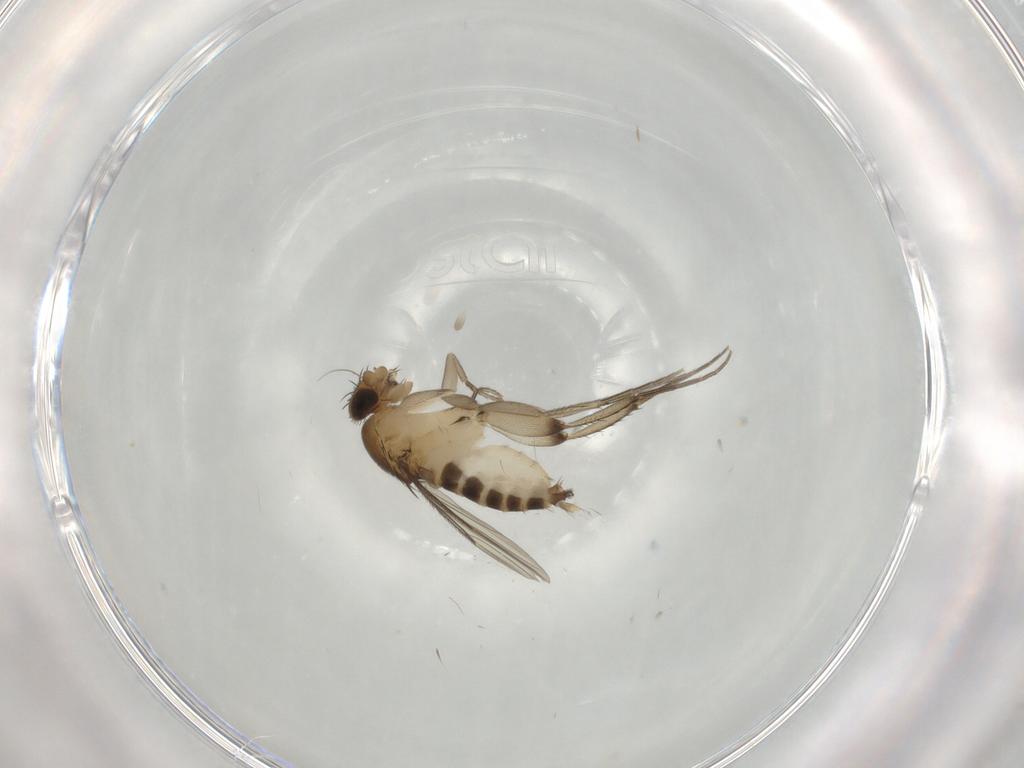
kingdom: Animalia
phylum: Arthropoda
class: Insecta
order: Diptera
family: Phoridae
